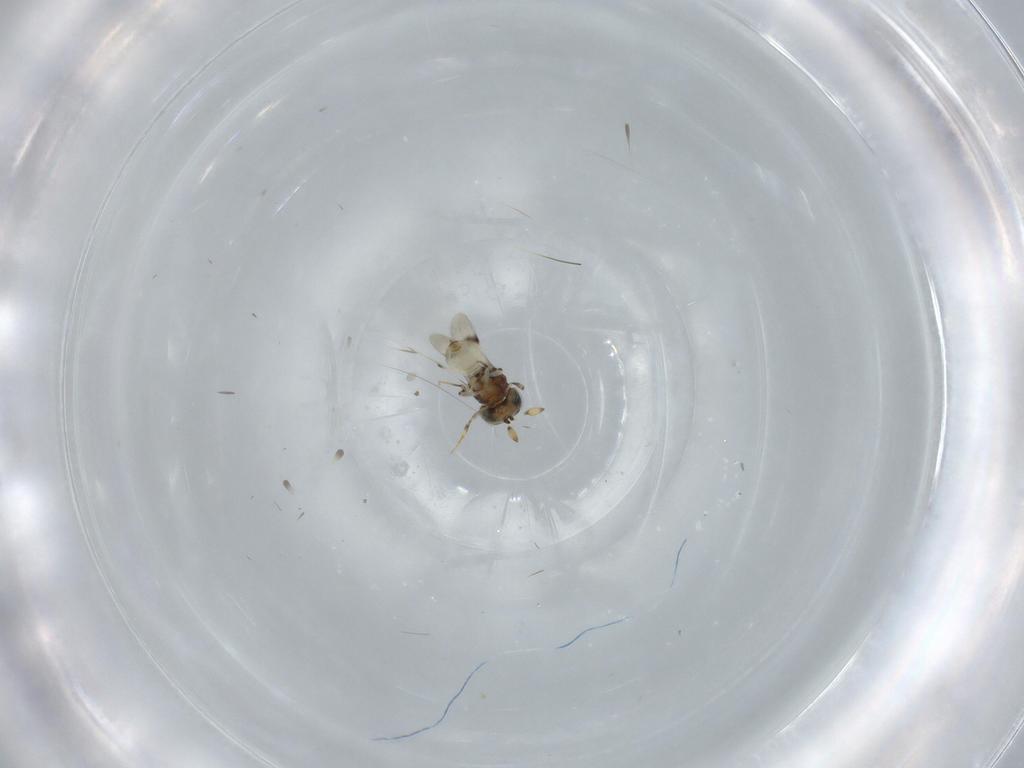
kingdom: Animalia
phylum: Arthropoda
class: Insecta
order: Hymenoptera
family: Scelionidae
